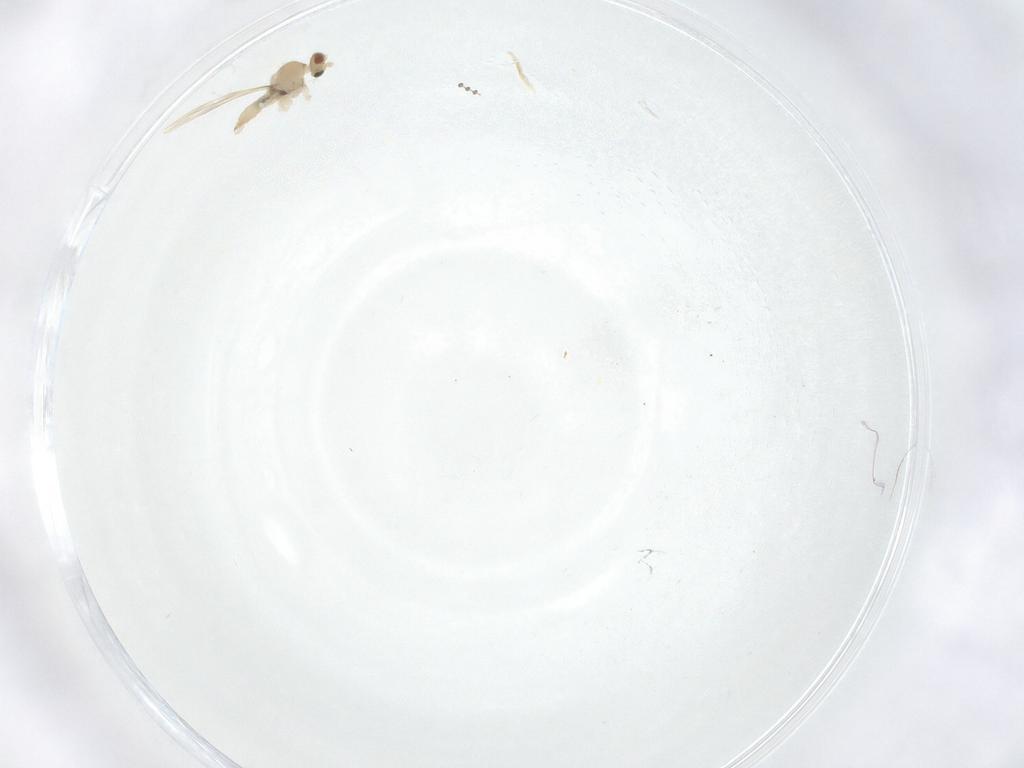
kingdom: Animalia
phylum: Arthropoda
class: Insecta
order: Diptera
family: Cecidomyiidae
